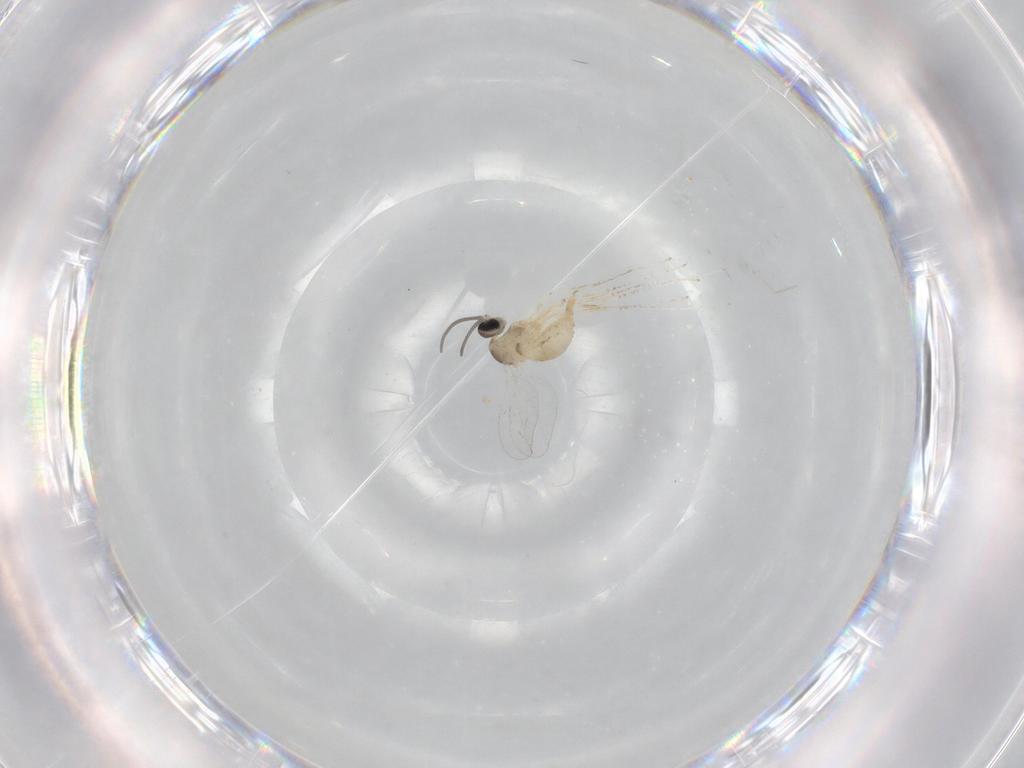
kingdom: Animalia
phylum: Arthropoda
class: Insecta
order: Diptera
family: Cecidomyiidae
